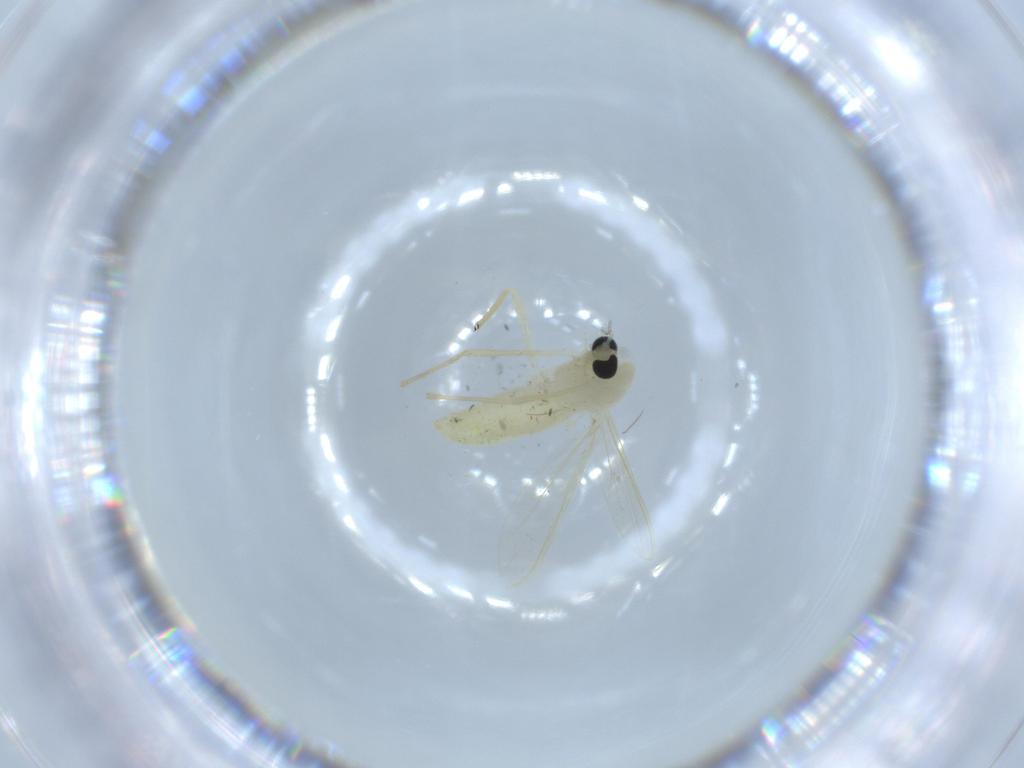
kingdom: Animalia
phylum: Arthropoda
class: Insecta
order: Diptera
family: Chironomidae
